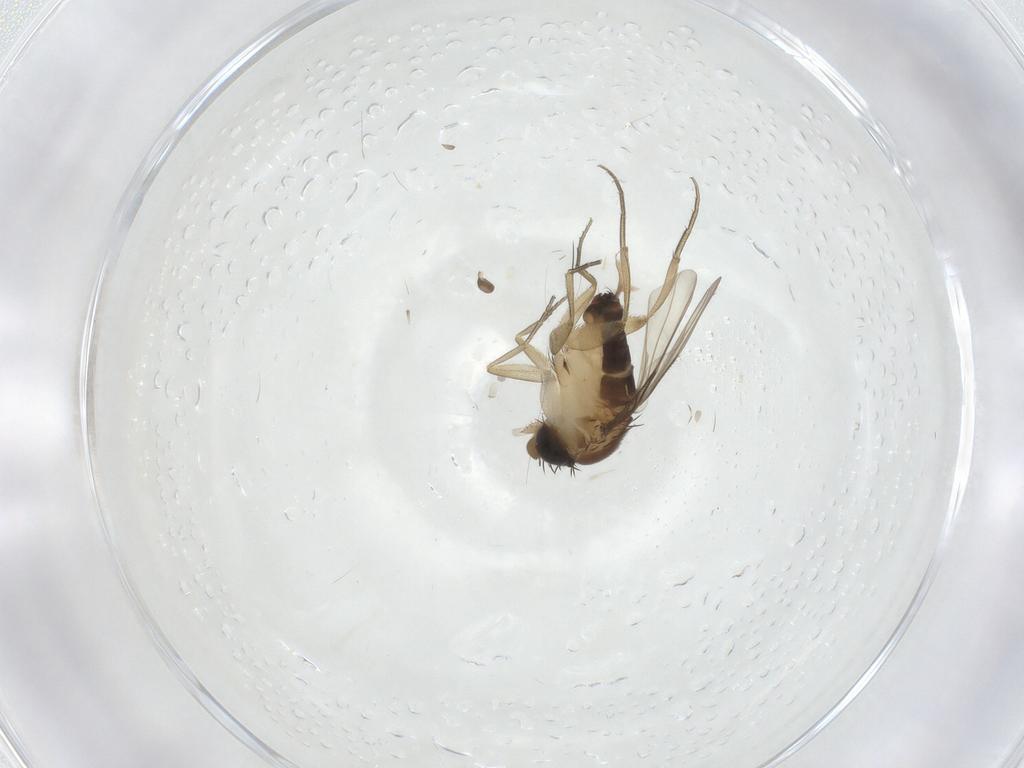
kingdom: Animalia
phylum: Arthropoda
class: Insecta
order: Diptera
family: Phoridae
